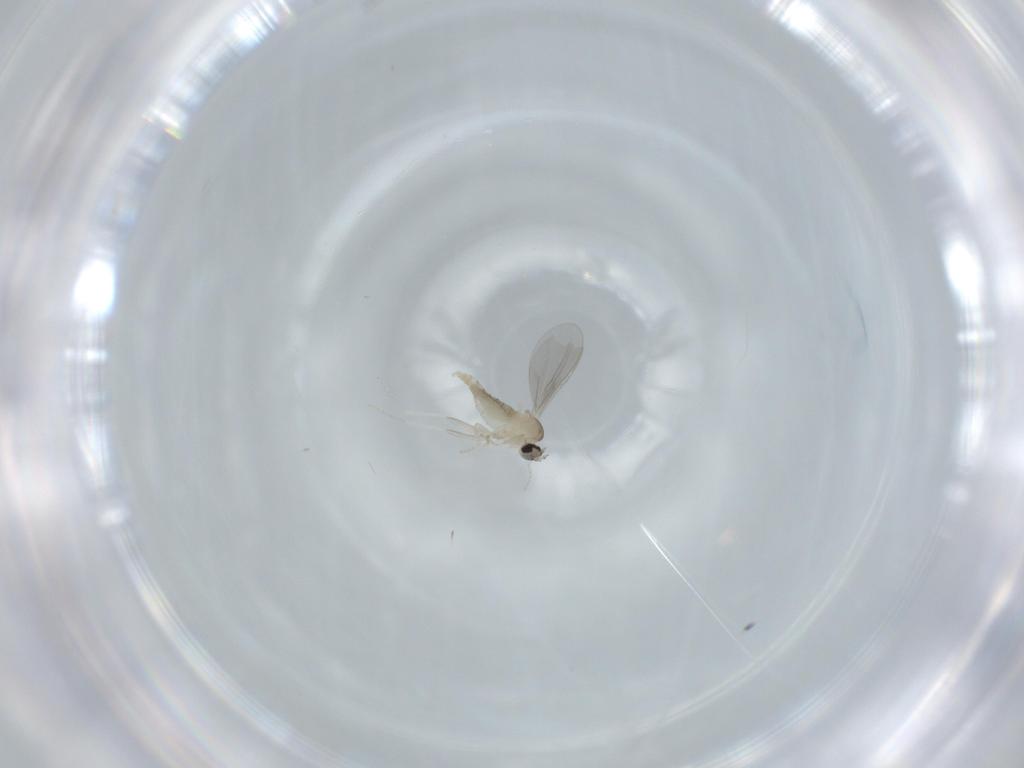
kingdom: Animalia
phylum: Arthropoda
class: Insecta
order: Diptera
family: Cecidomyiidae
